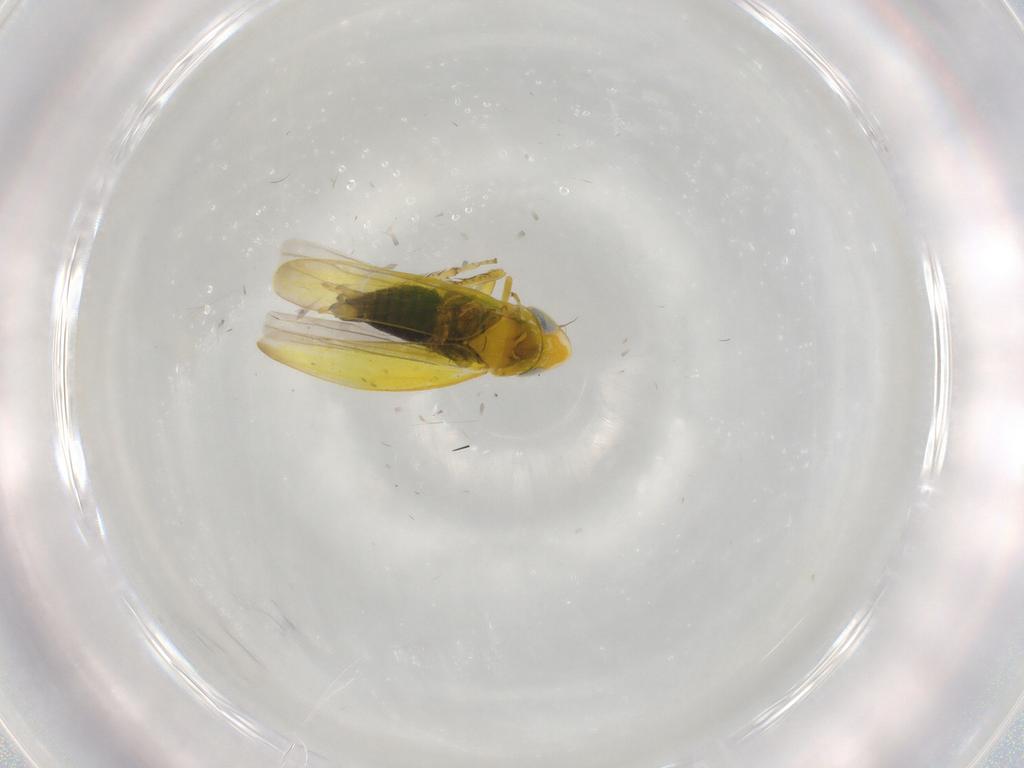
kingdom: Animalia
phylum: Arthropoda
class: Insecta
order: Hemiptera
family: Cicadellidae
